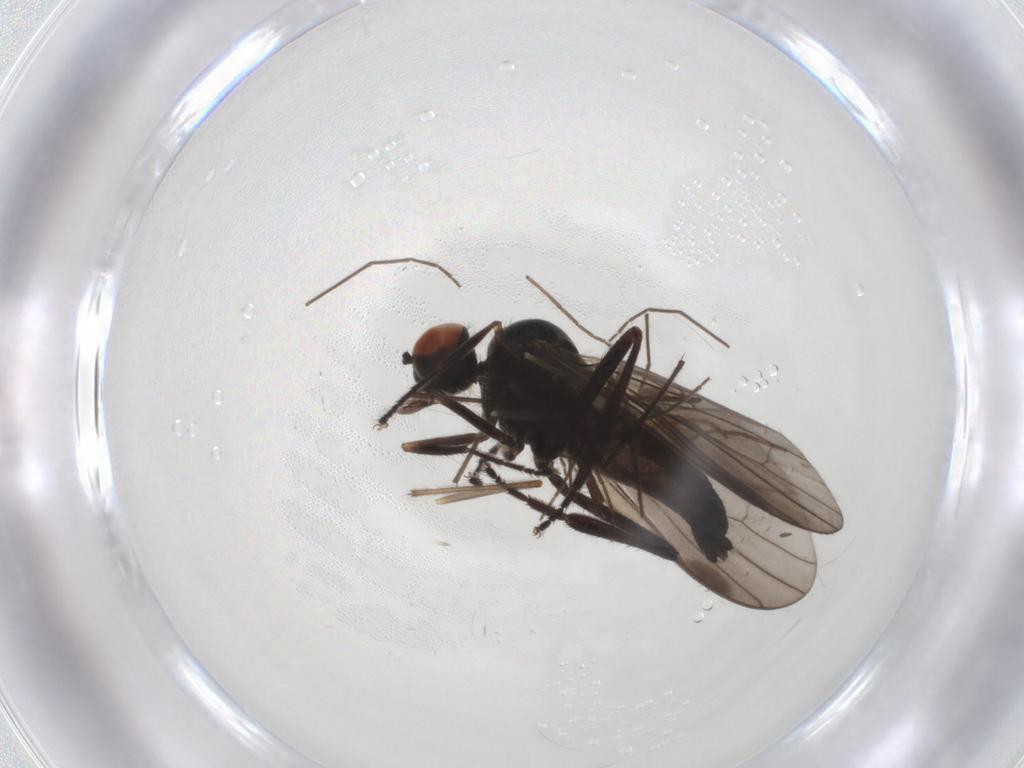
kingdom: Animalia
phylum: Arthropoda
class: Insecta
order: Diptera
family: Hybotidae
